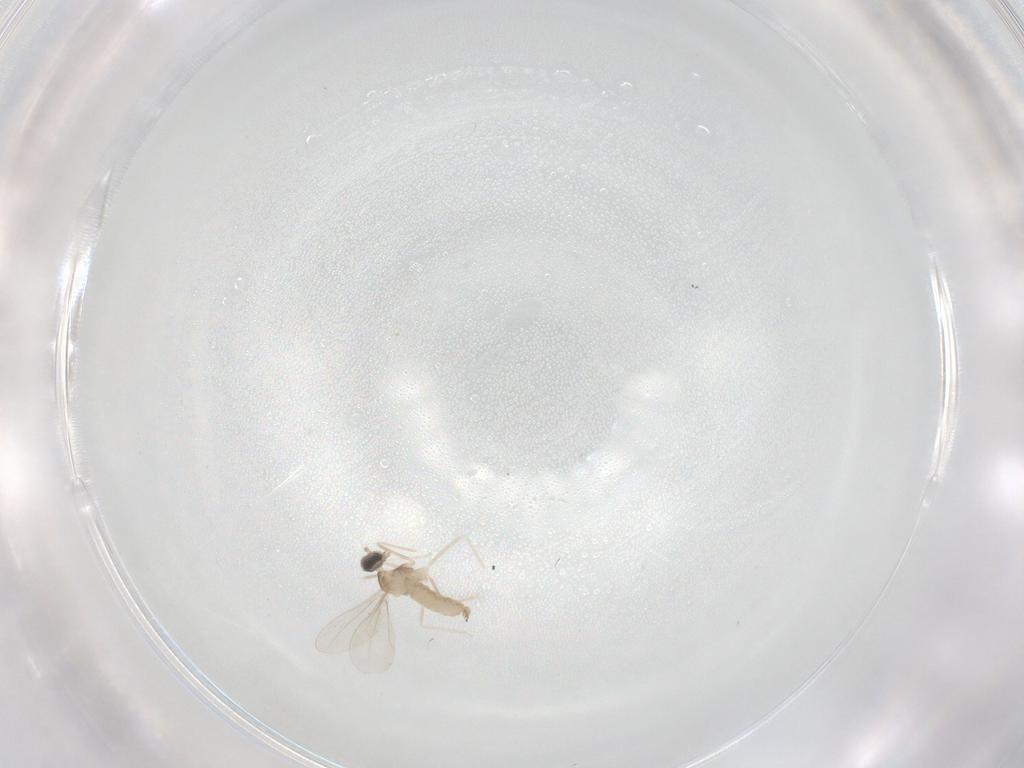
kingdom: Animalia
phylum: Arthropoda
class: Insecta
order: Diptera
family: Cecidomyiidae
